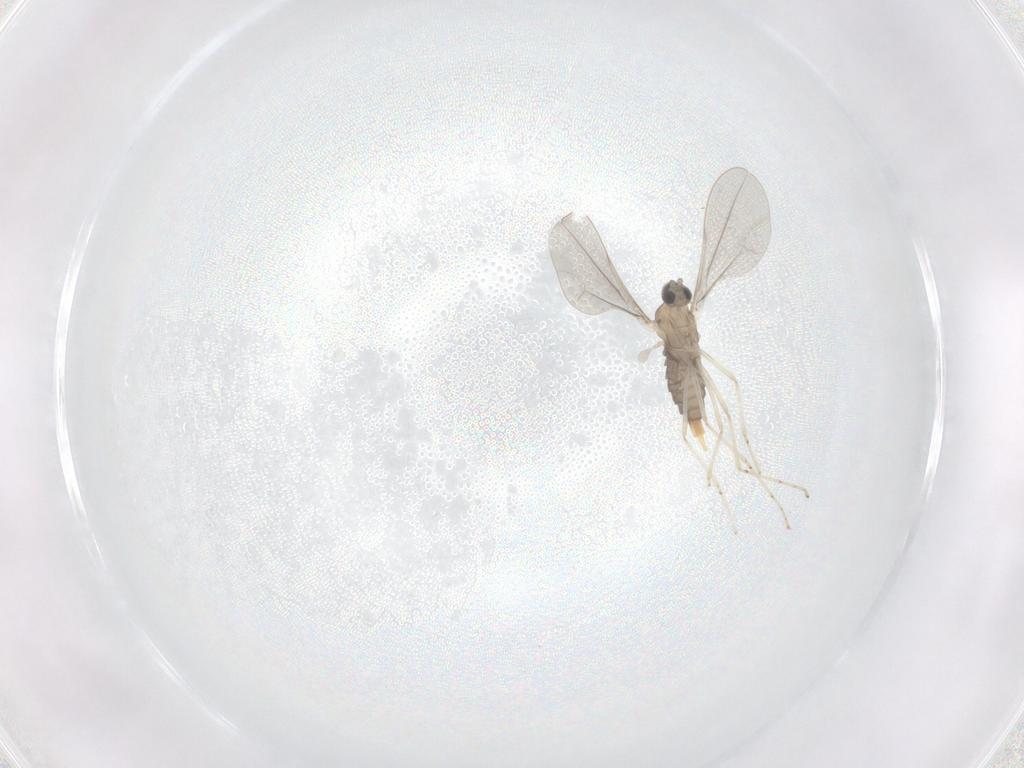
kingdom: Animalia
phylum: Arthropoda
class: Insecta
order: Diptera
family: Cecidomyiidae
